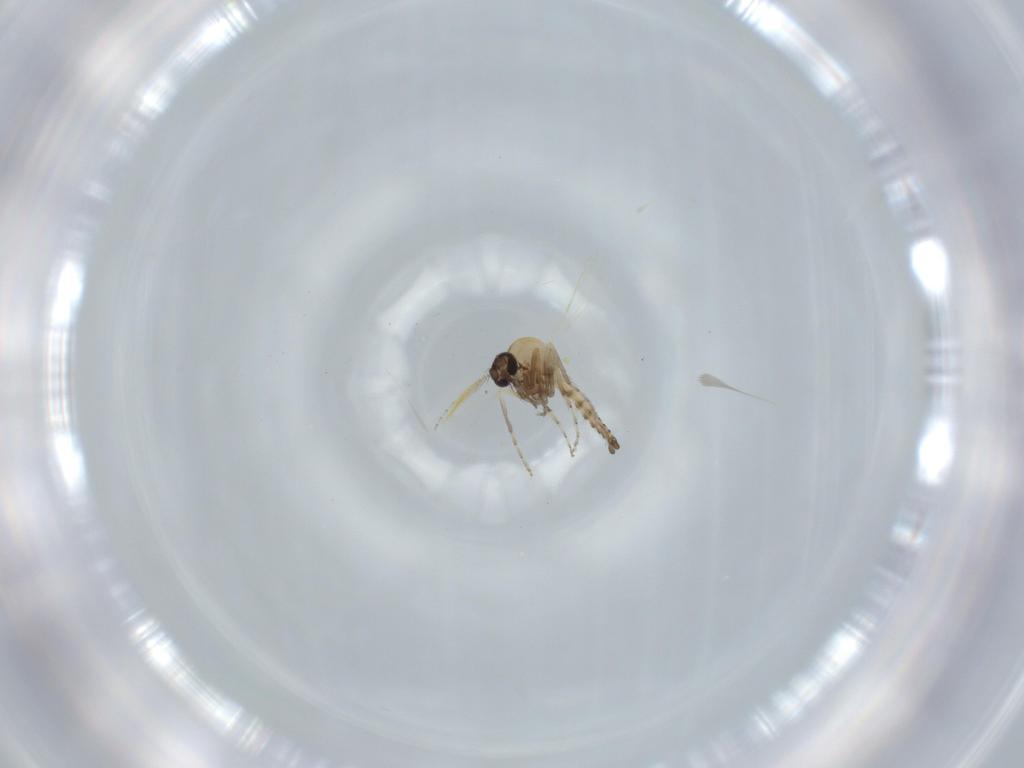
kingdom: Animalia
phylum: Arthropoda
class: Insecta
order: Diptera
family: Ceratopogonidae
